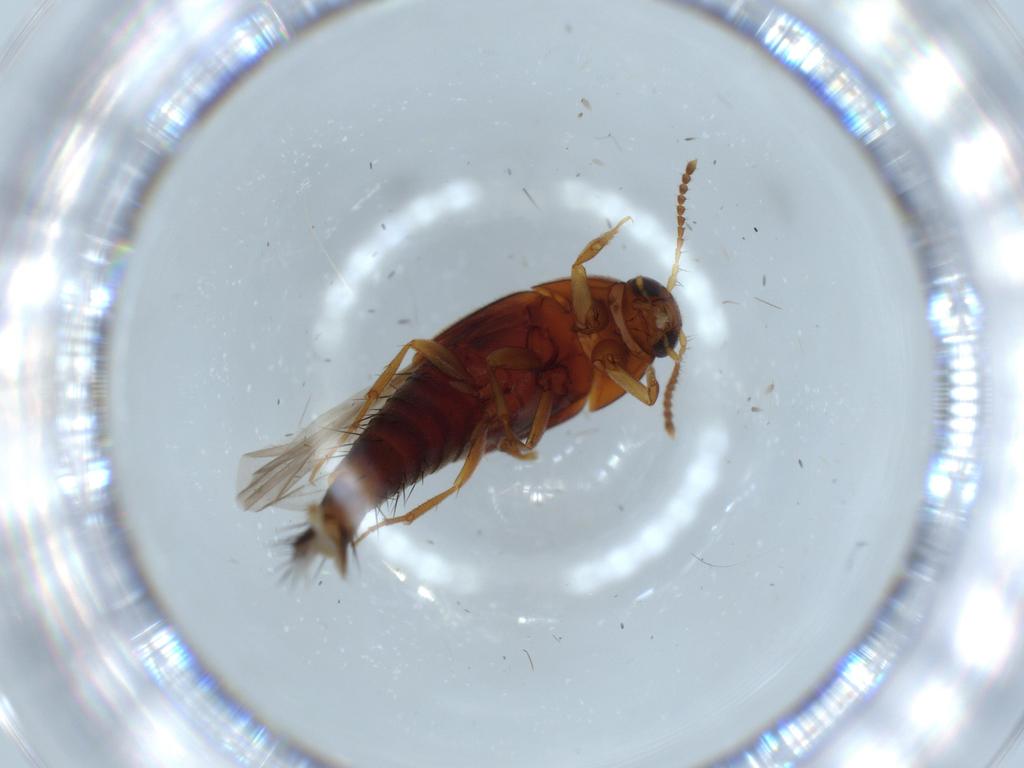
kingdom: Animalia
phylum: Arthropoda
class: Insecta
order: Coleoptera
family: Staphylinidae
